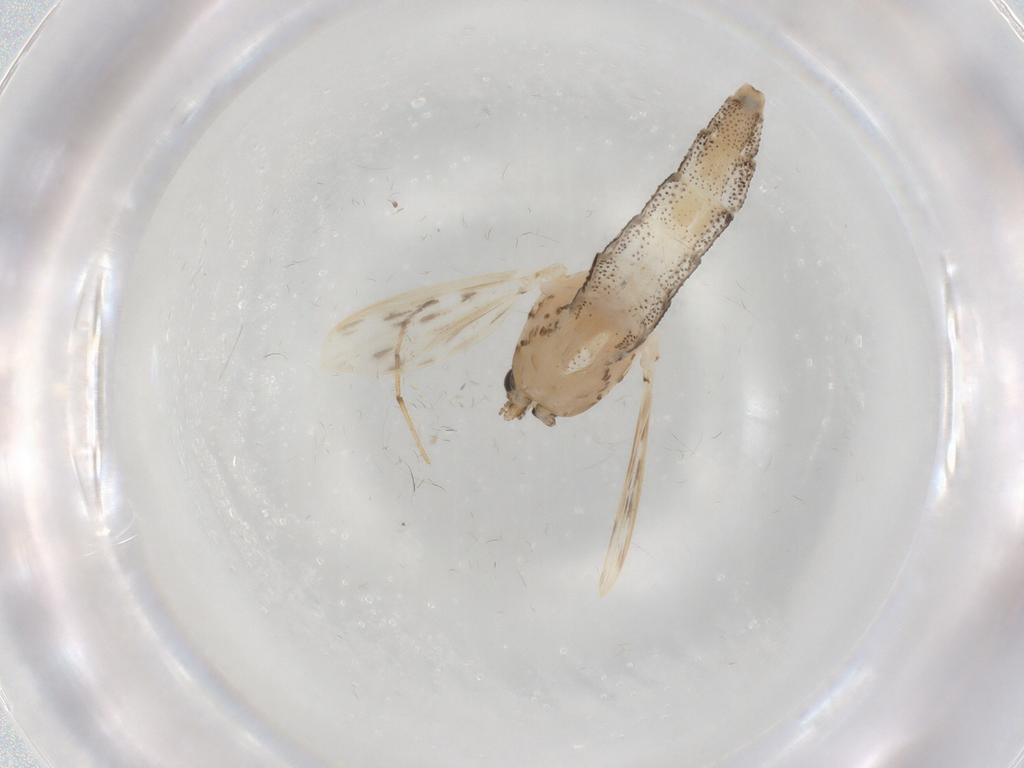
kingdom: Animalia
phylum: Arthropoda
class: Insecta
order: Diptera
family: Chaoboridae
